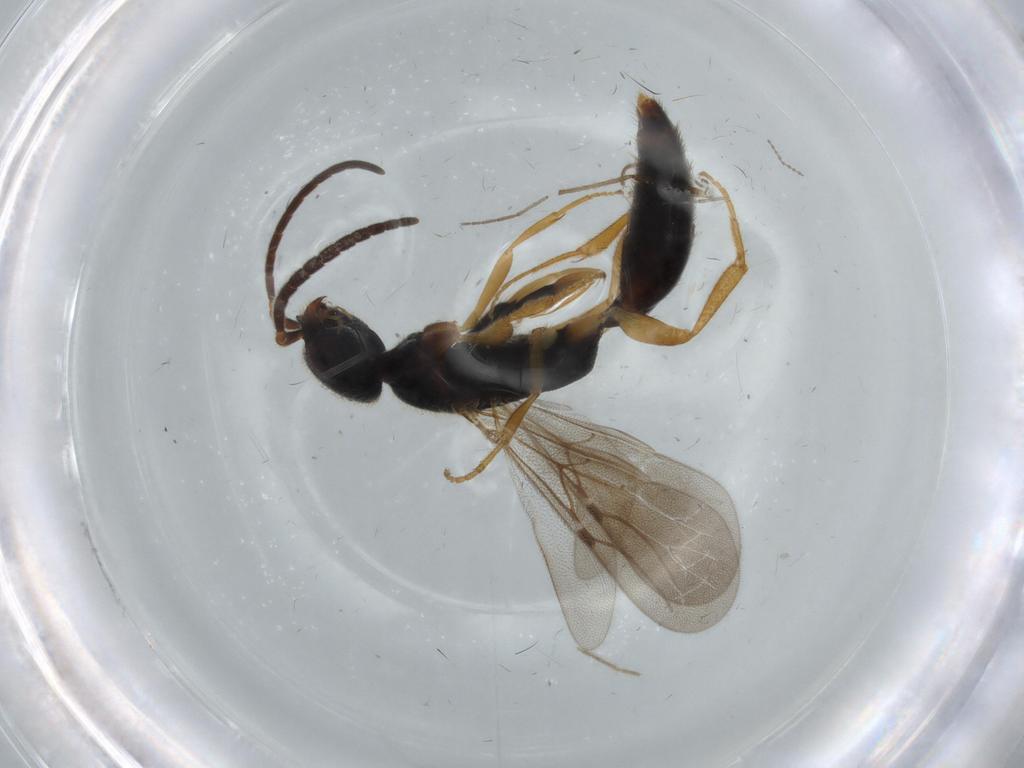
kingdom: Animalia
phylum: Arthropoda
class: Insecta
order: Hymenoptera
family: Bethylidae
